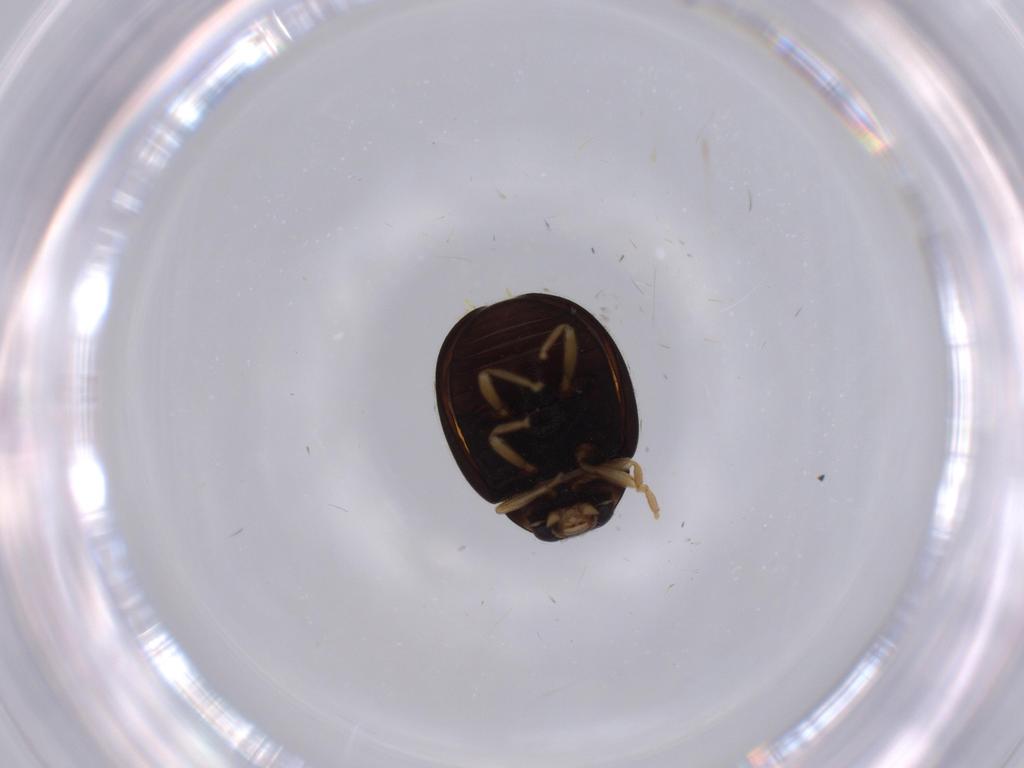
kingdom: Animalia
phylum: Arthropoda
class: Insecta
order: Coleoptera
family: Coccinellidae
